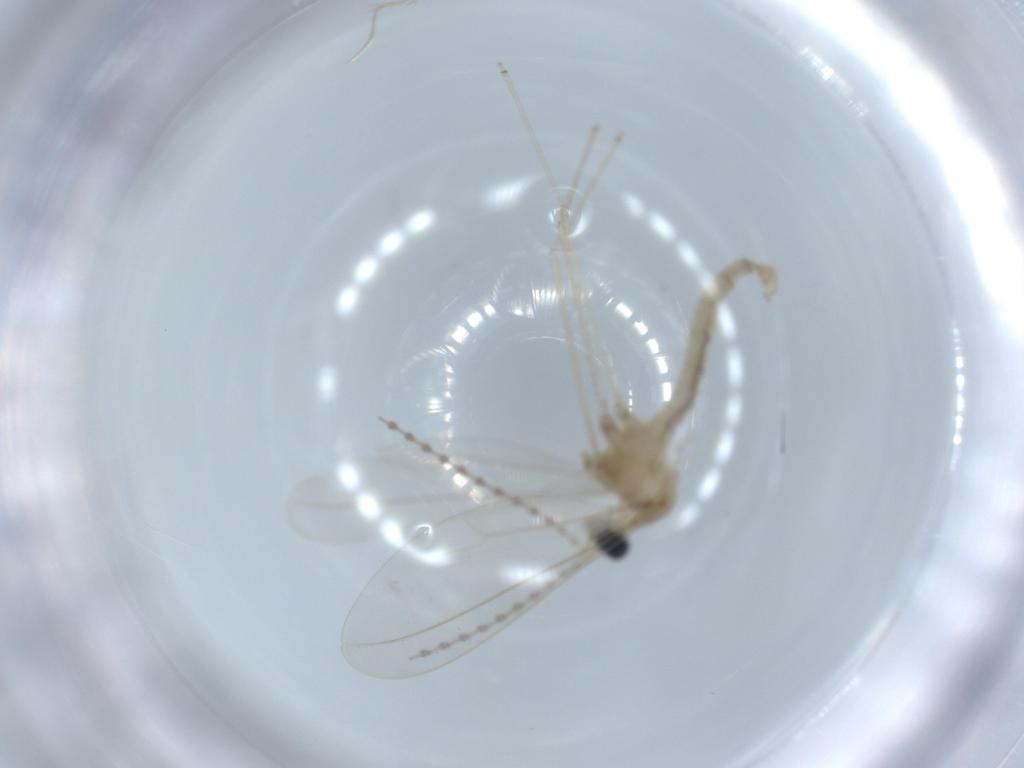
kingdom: Animalia
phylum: Arthropoda
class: Insecta
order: Diptera
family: Cecidomyiidae
